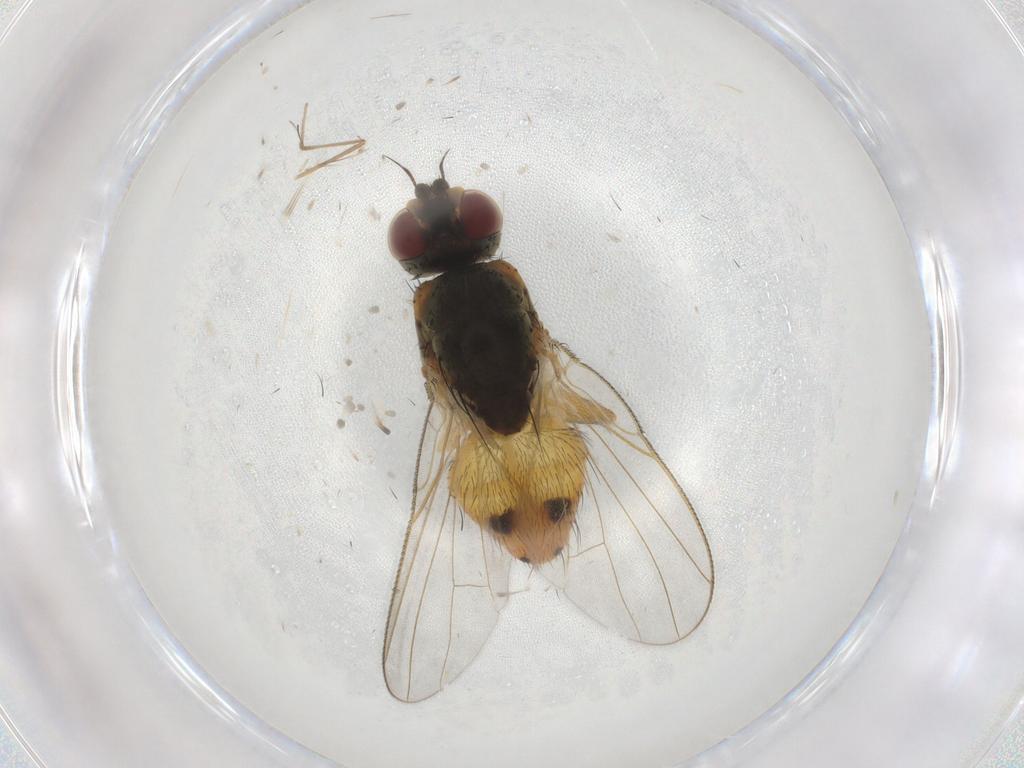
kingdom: Animalia
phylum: Arthropoda
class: Insecta
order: Diptera
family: Muscidae
